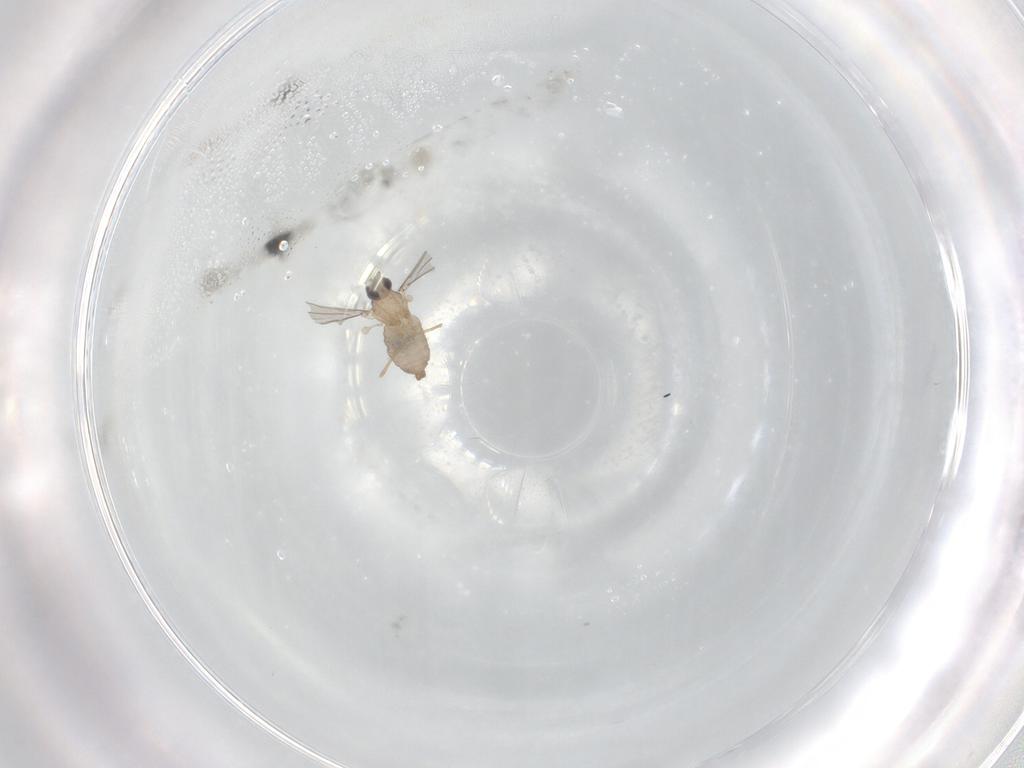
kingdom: Animalia
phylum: Arthropoda
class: Insecta
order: Diptera
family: Cecidomyiidae
